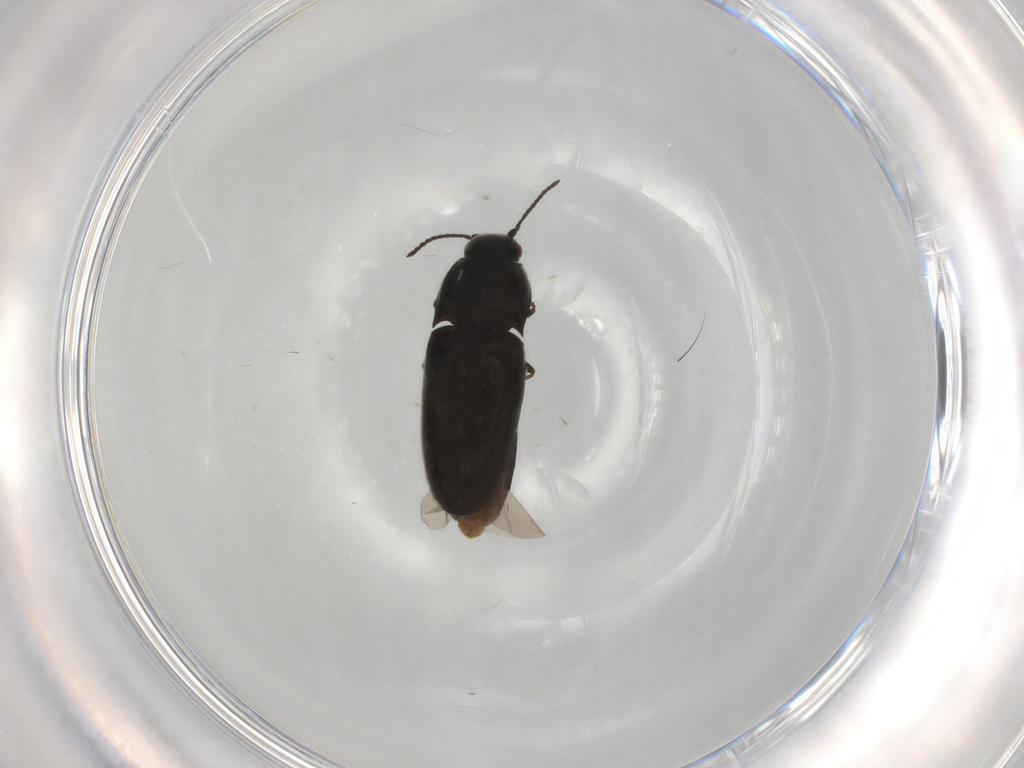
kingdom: Animalia
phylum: Arthropoda
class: Insecta
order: Coleoptera
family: Elateridae
